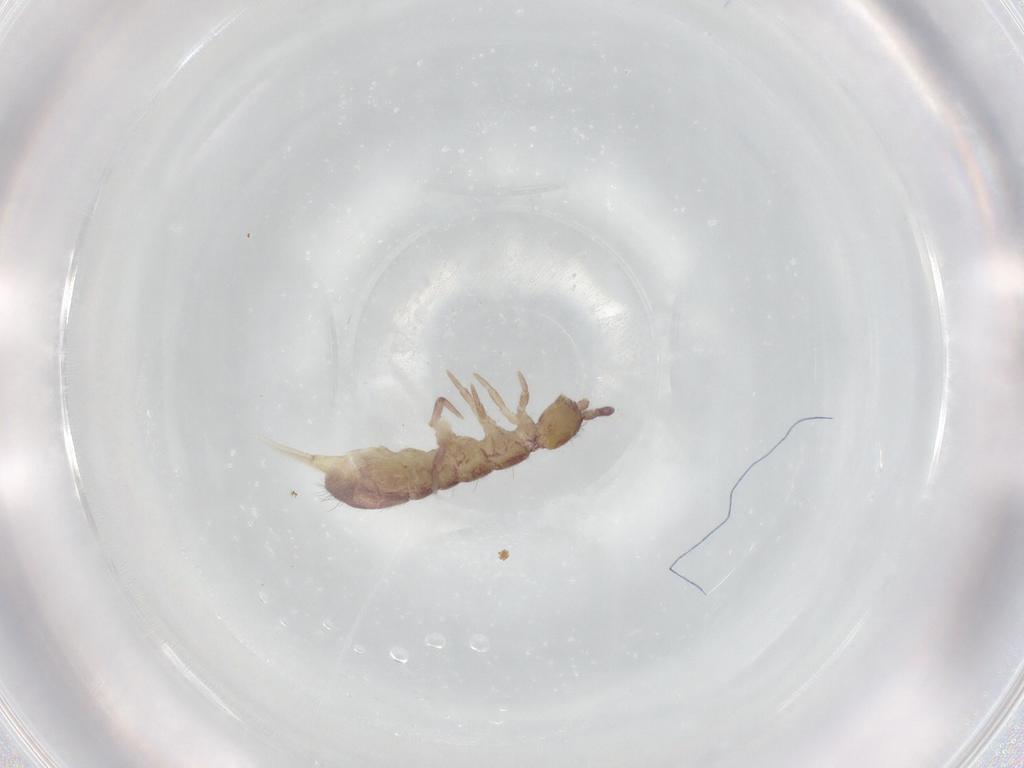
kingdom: Animalia
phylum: Arthropoda
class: Collembola
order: Entomobryomorpha
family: Isotomidae
